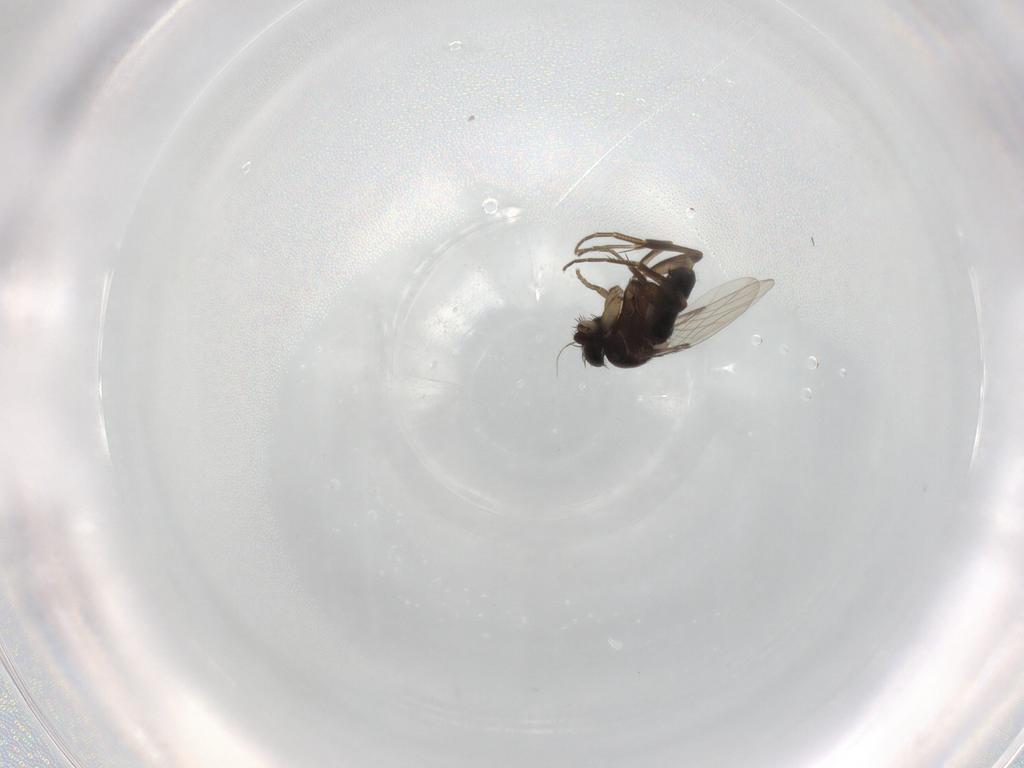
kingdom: Animalia
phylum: Arthropoda
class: Insecta
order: Diptera
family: Phoridae
